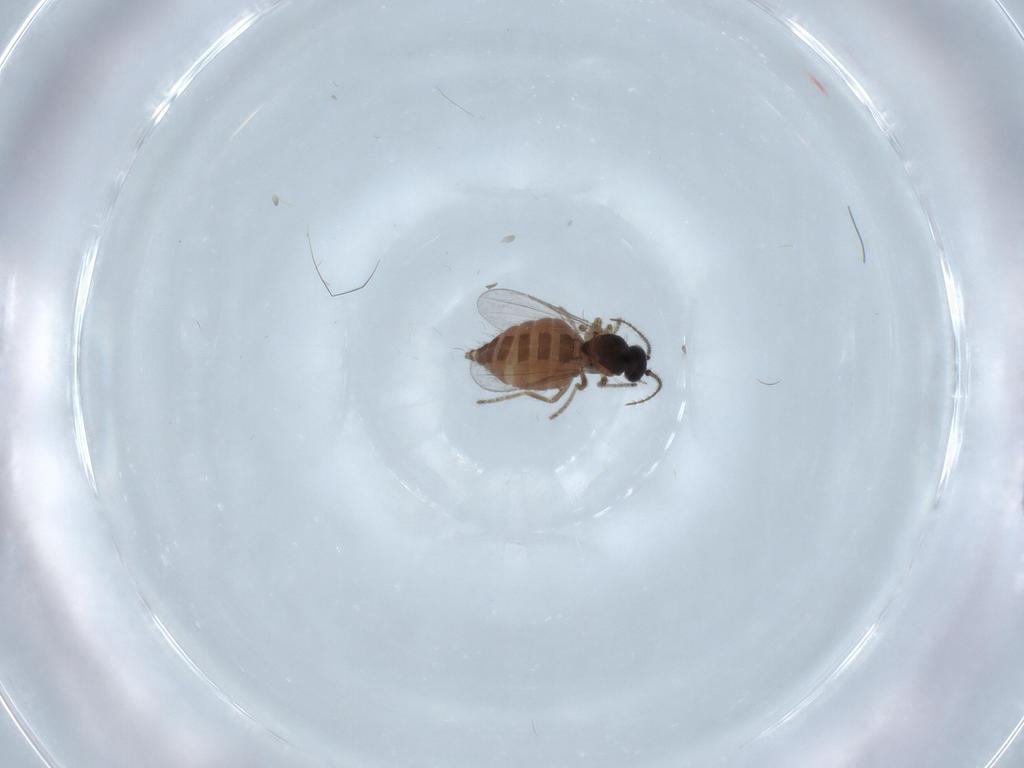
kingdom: Animalia
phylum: Arthropoda
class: Insecta
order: Diptera
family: Ceratopogonidae
